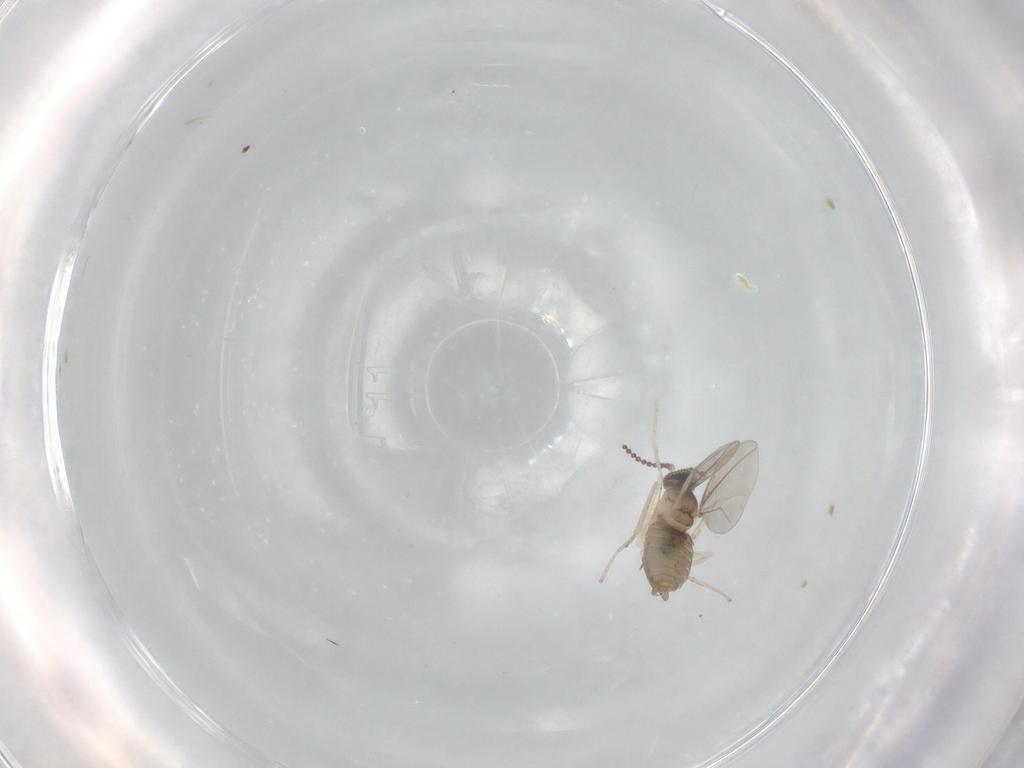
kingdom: Animalia
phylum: Arthropoda
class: Insecta
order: Diptera
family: Cecidomyiidae
